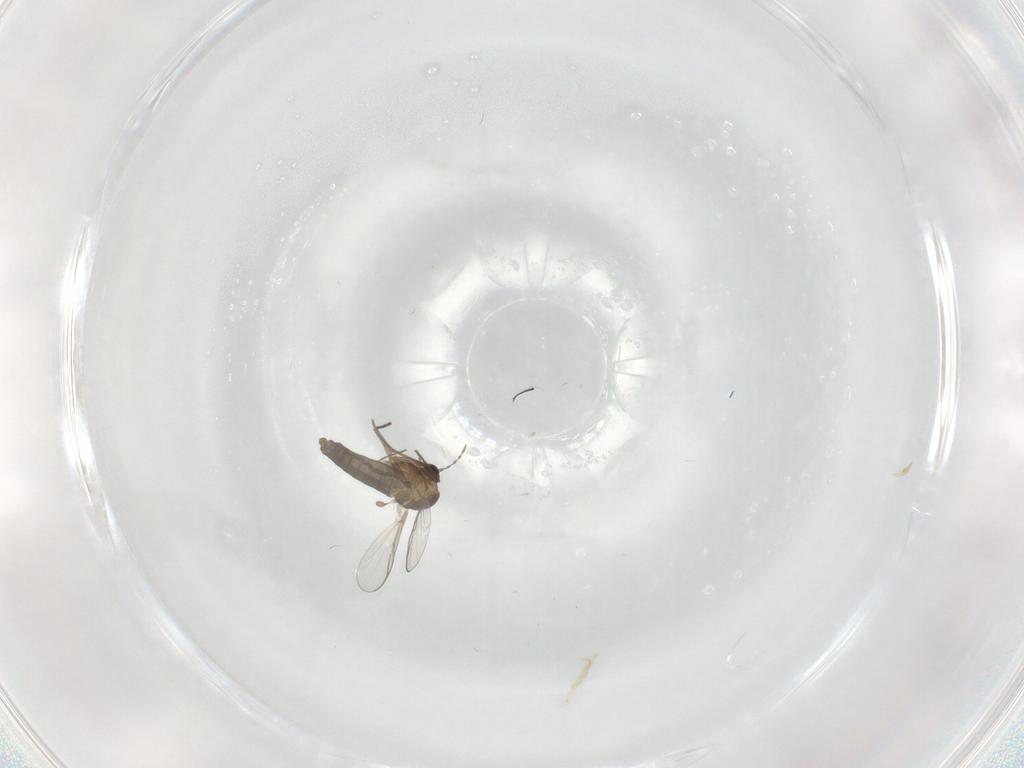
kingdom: Animalia
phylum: Arthropoda
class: Insecta
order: Diptera
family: Chironomidae
